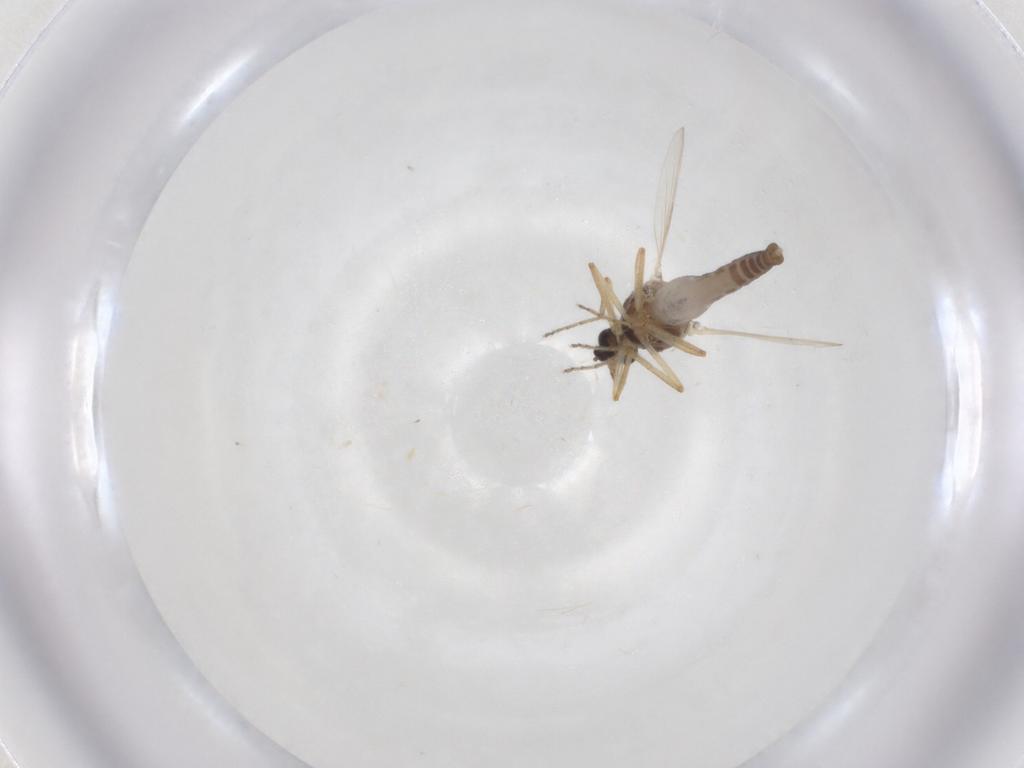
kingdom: Animalia
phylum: Arthropoda
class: Insecta
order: Diptera
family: Ceratopogonidae
